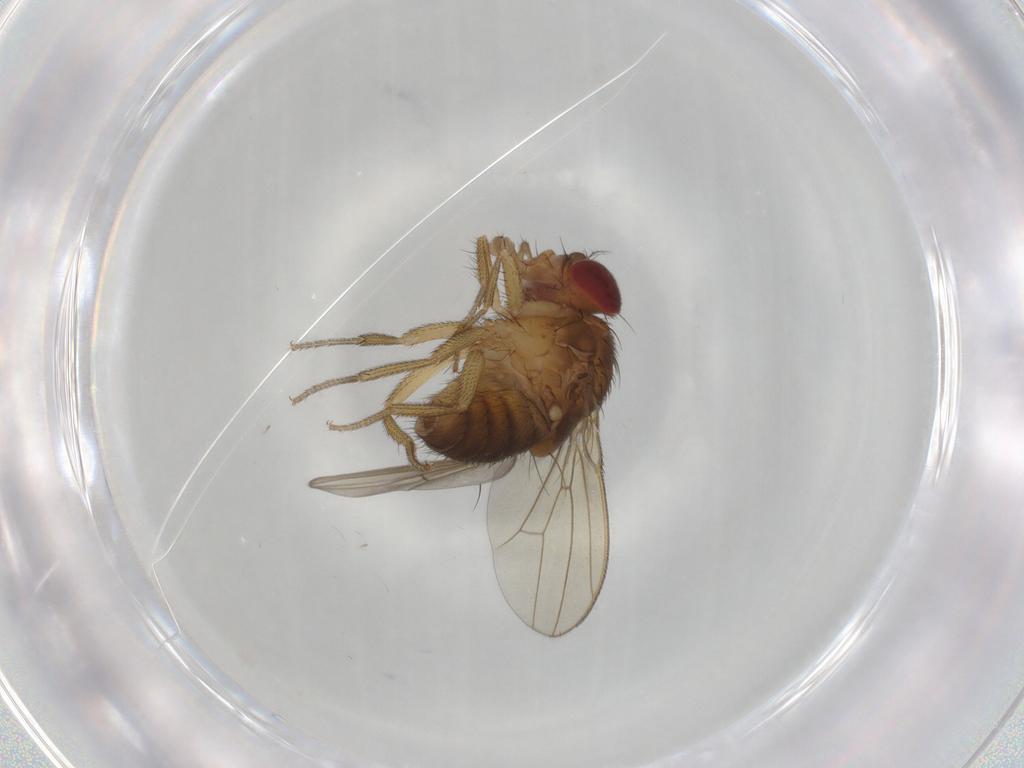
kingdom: Animalia
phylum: Arthropoda
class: Insecta
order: Diptera
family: Drosophilidae
